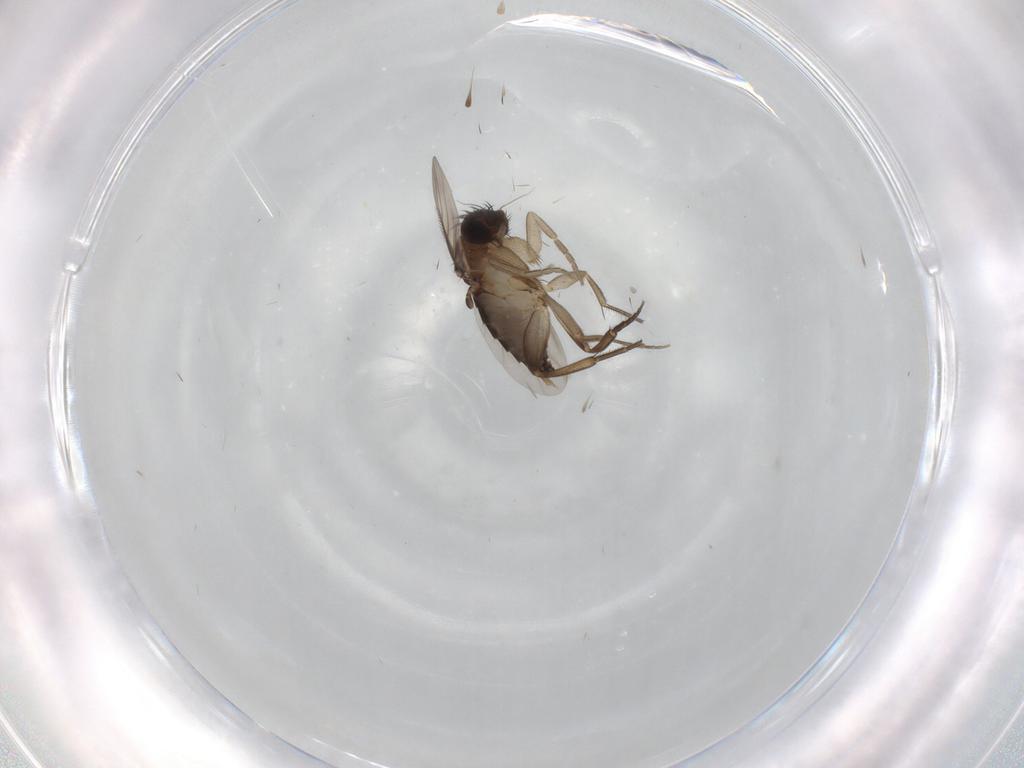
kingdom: Animalia
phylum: Arthropoda
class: Insecta
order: Diptera
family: Phoridae
